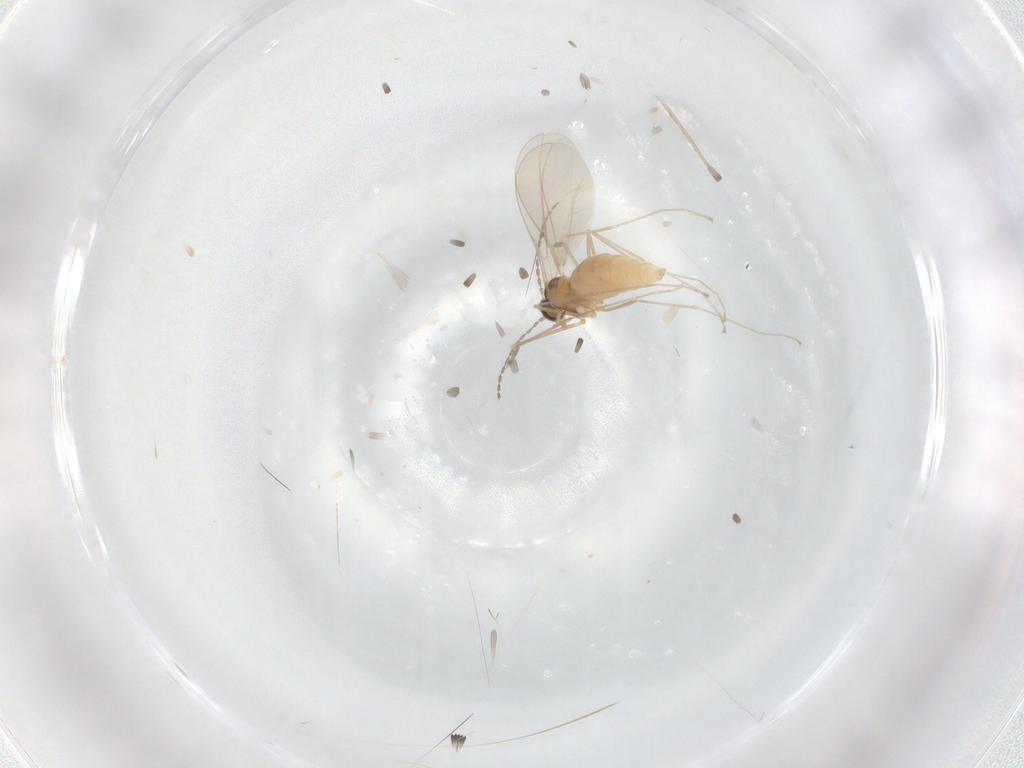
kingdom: Animalia
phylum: Arthropoda
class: Insecta
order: Diptera
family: Cecidomyiidae
